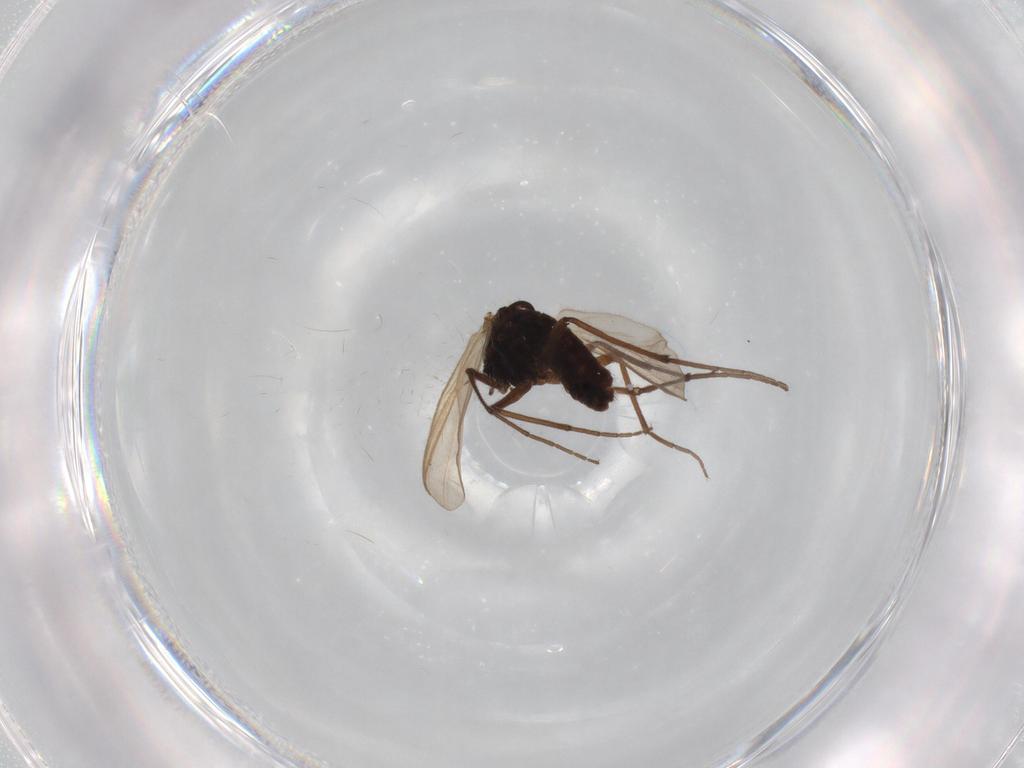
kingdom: Animalia
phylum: Arthropoda
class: Insecta
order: Diptera
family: Chironomidae
